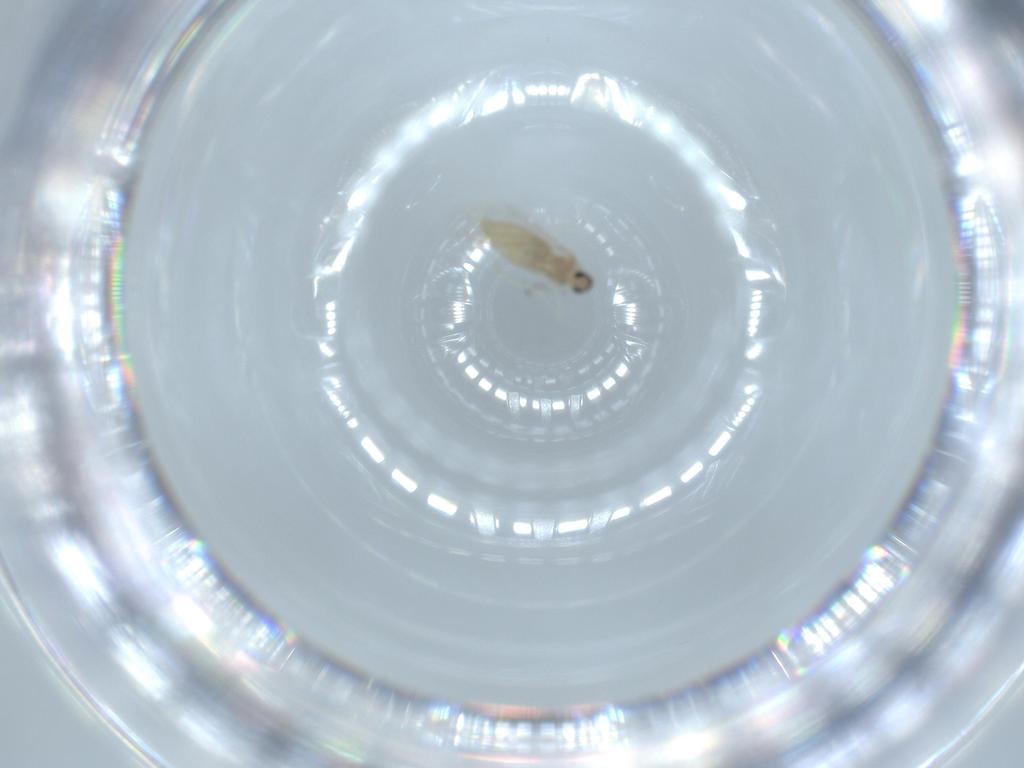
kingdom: Animalia
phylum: Arthropoda
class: Insecta
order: Diptera
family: Cecidomyiidae
